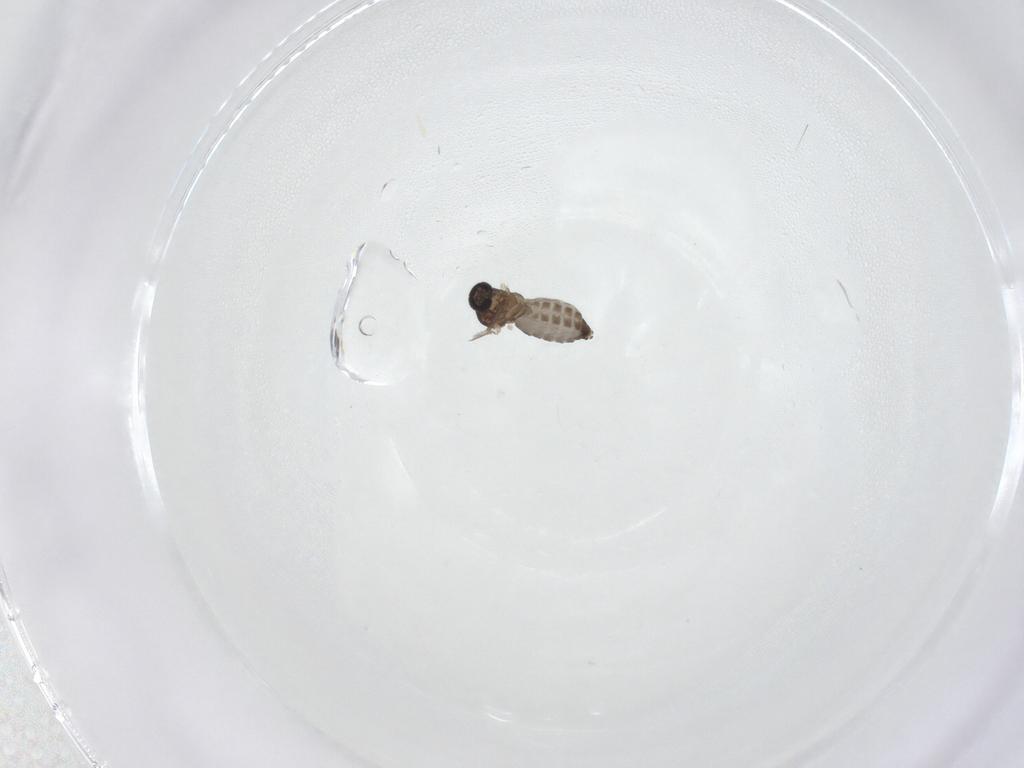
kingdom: Animalia
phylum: Arthropoda
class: Insecta
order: Diptera
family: Ceratopogonidae
